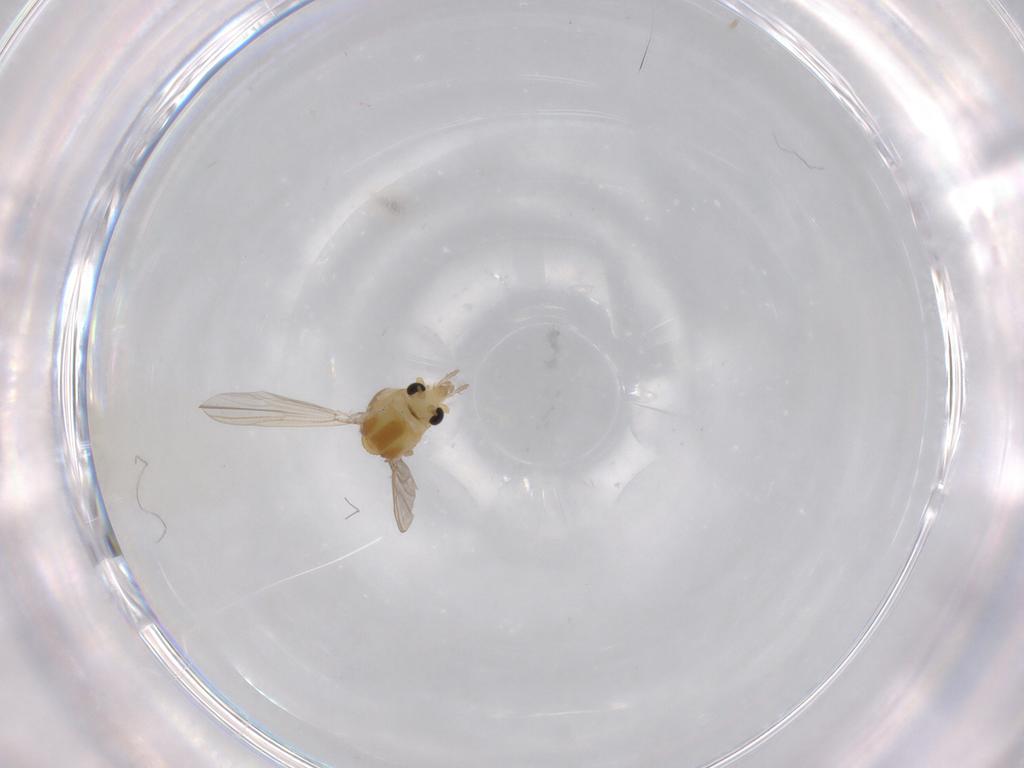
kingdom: Animalia
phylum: Arthropoda
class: Insecta
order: Diptera
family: Chironomidae
